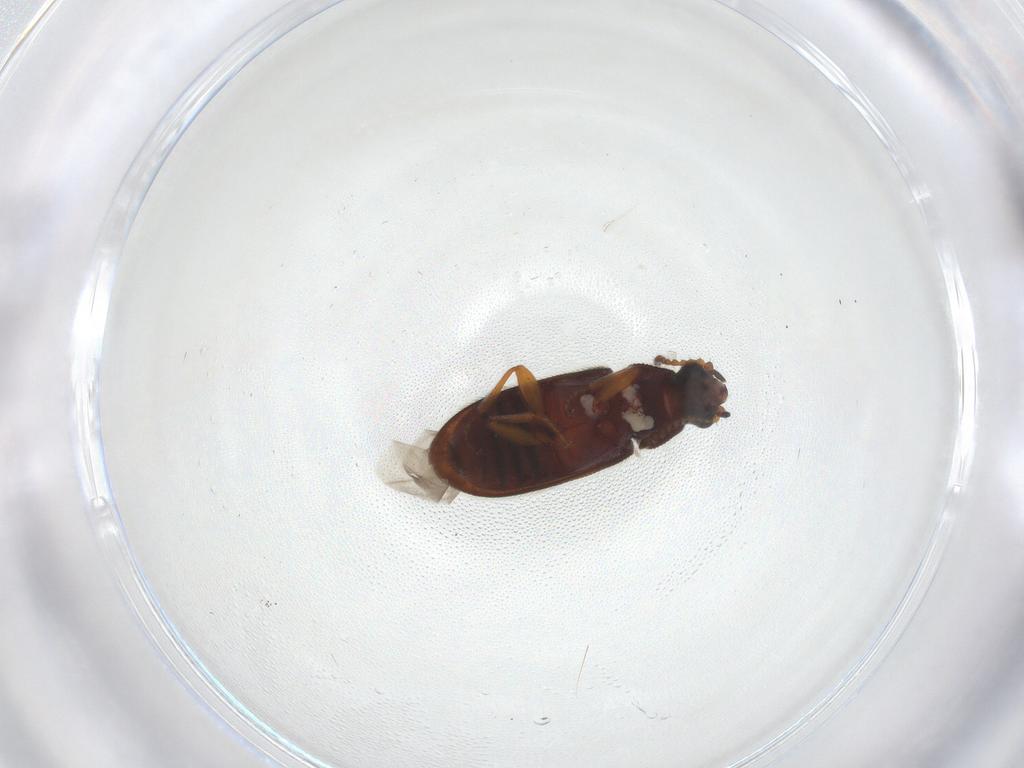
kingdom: Animalia
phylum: Arthropoda
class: Insecta
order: Coleoptera
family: Melyridae
